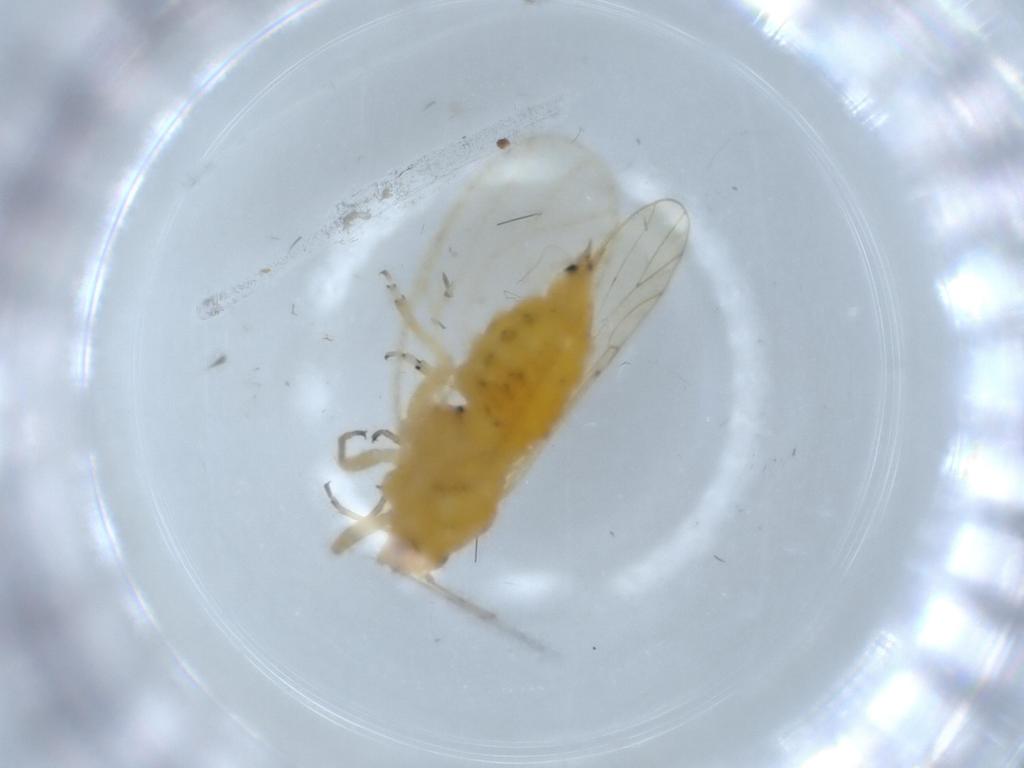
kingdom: Animalia
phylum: Arthropoda
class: Insecta
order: Hemiptera
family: Psyllidae
